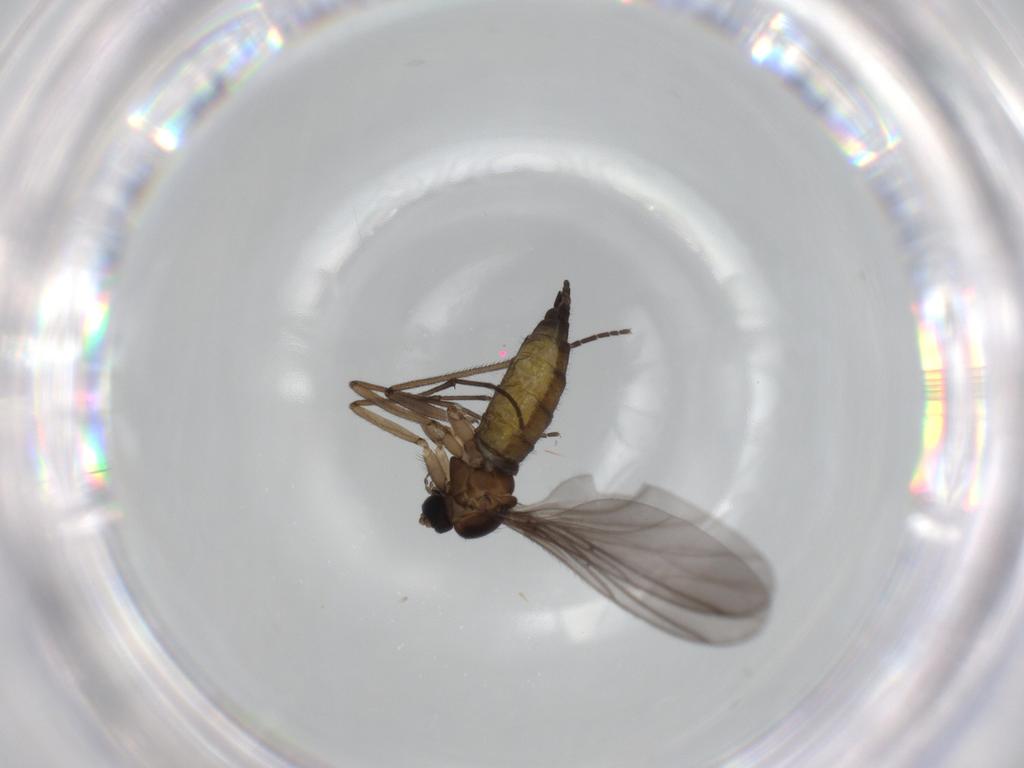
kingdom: Animalia
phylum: Arthropoda
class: Insecta
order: Diptera
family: Sciaridae
